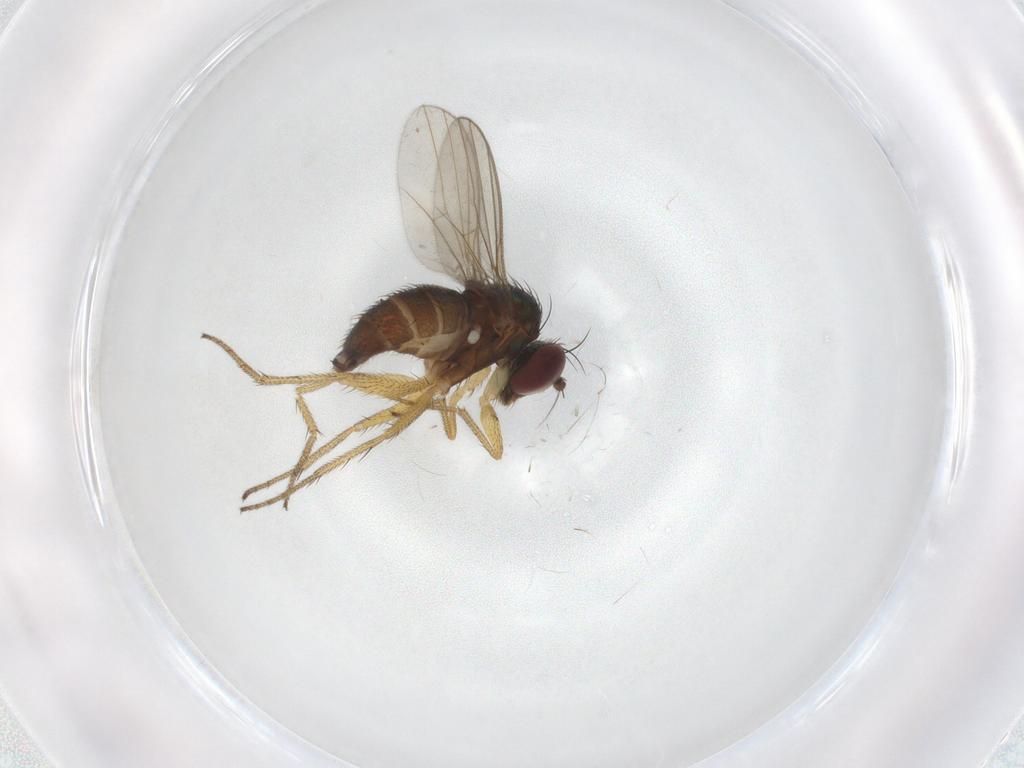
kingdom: Animalia
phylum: Arthropoda
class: Insecta
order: Diptera
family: Dolichopodidae
